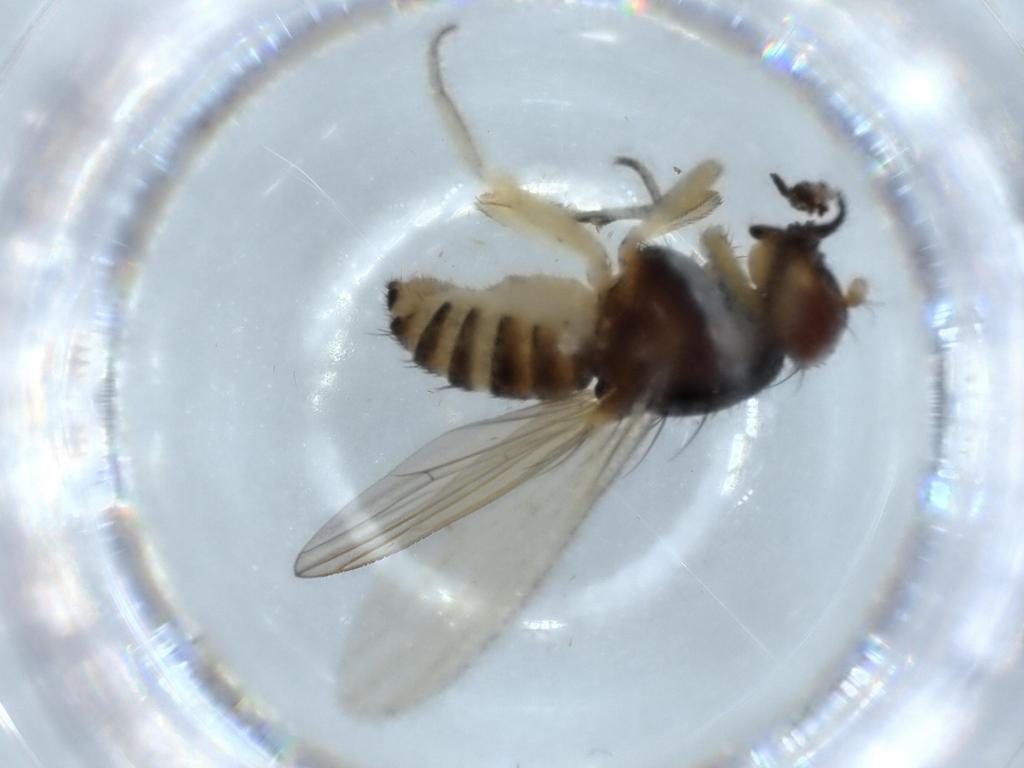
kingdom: Animalia
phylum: Arthropoda
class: Insecta
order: Diptera
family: Lauxaniidae
